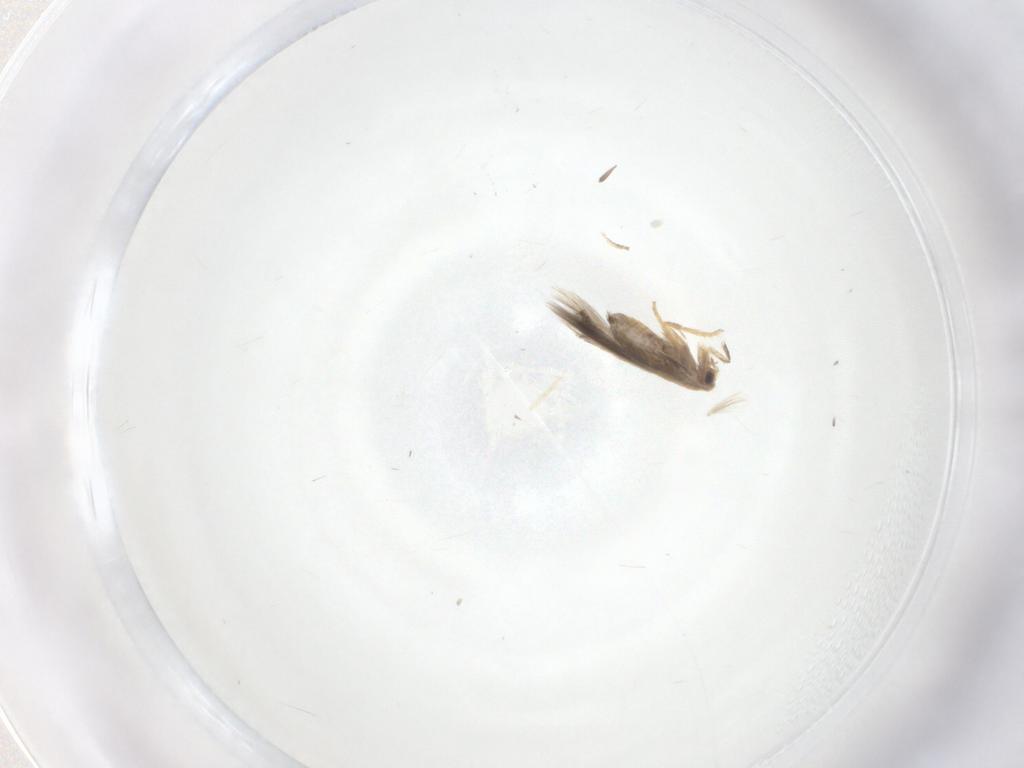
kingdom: Animalia
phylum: Arthropoda
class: Insecta
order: Lepidoptera
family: Nepticulidae
